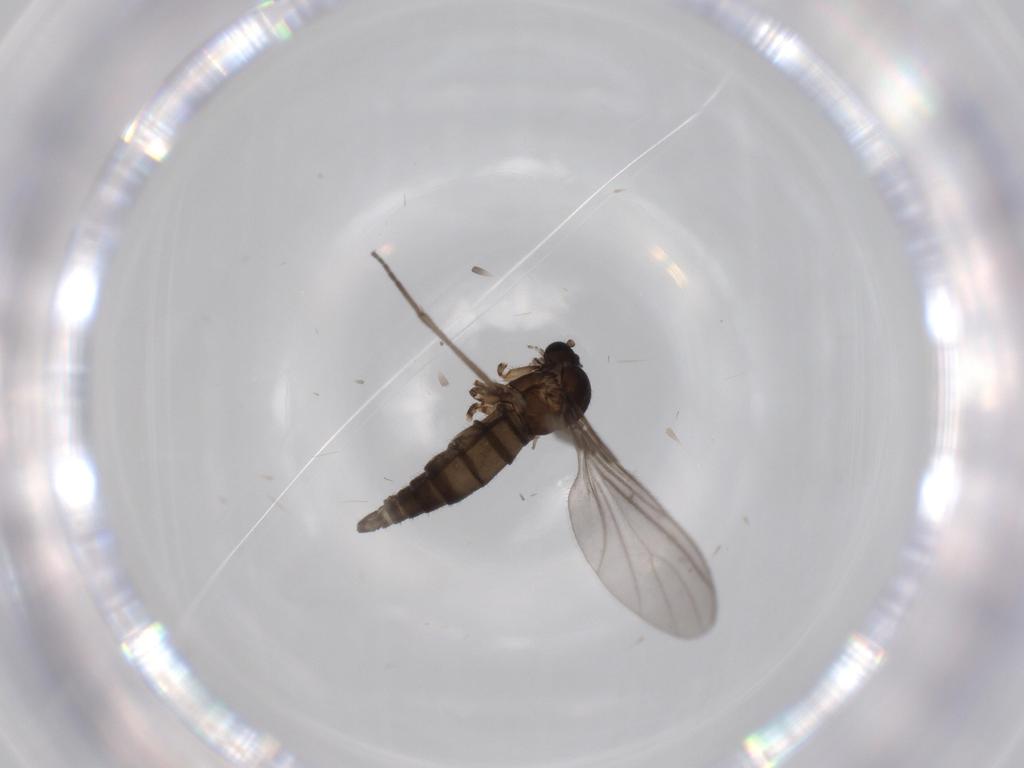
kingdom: Animalia
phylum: Arthropoda
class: Insecta
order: Diptera
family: Sciaridae
